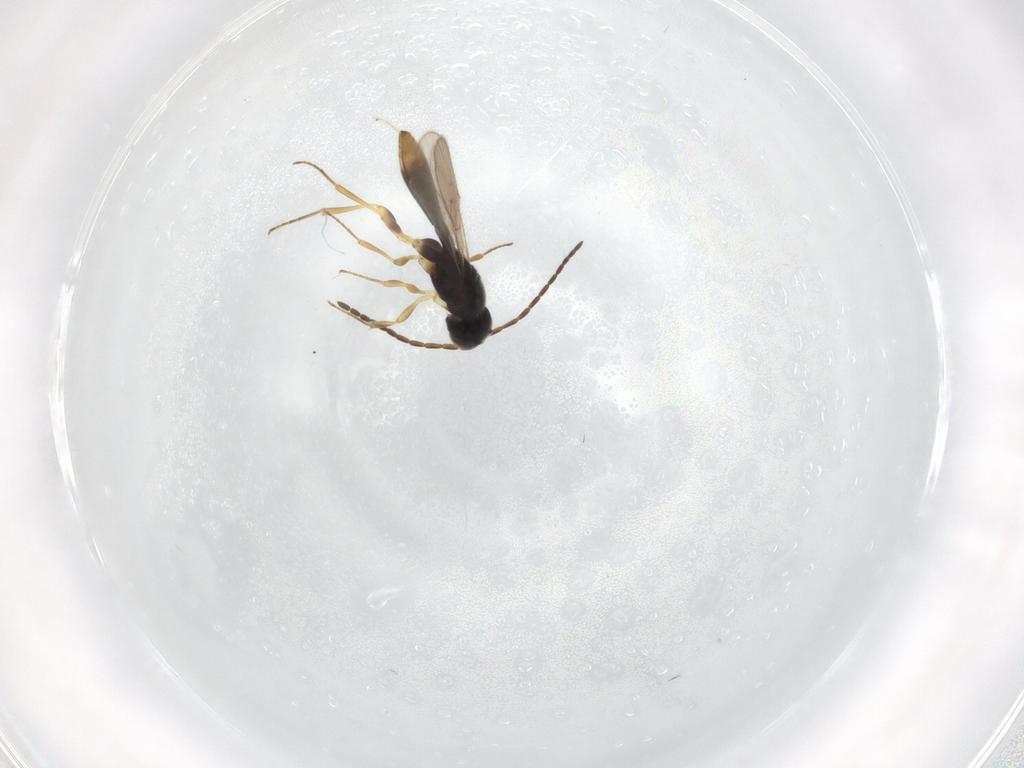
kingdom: Animalia
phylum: Arthropoda
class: Insecta
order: Hymenoptera
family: Scelionidae
